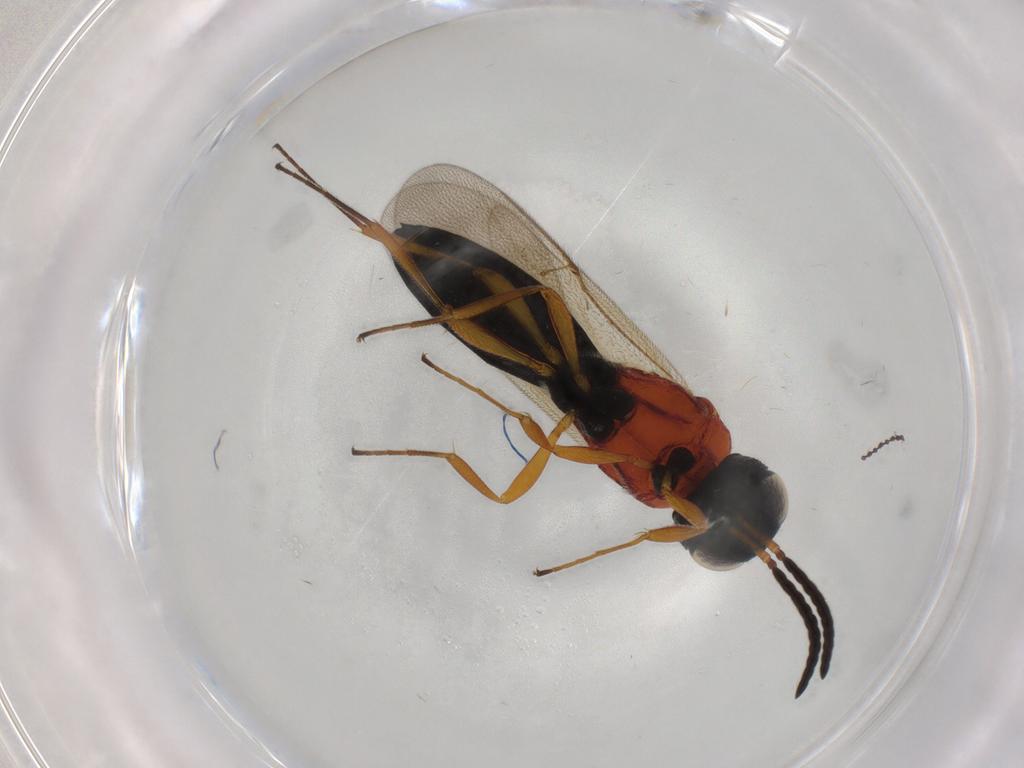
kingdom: Animalia
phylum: Arthropoda
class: Insecta
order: Hymenoptera
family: Scelionidae
